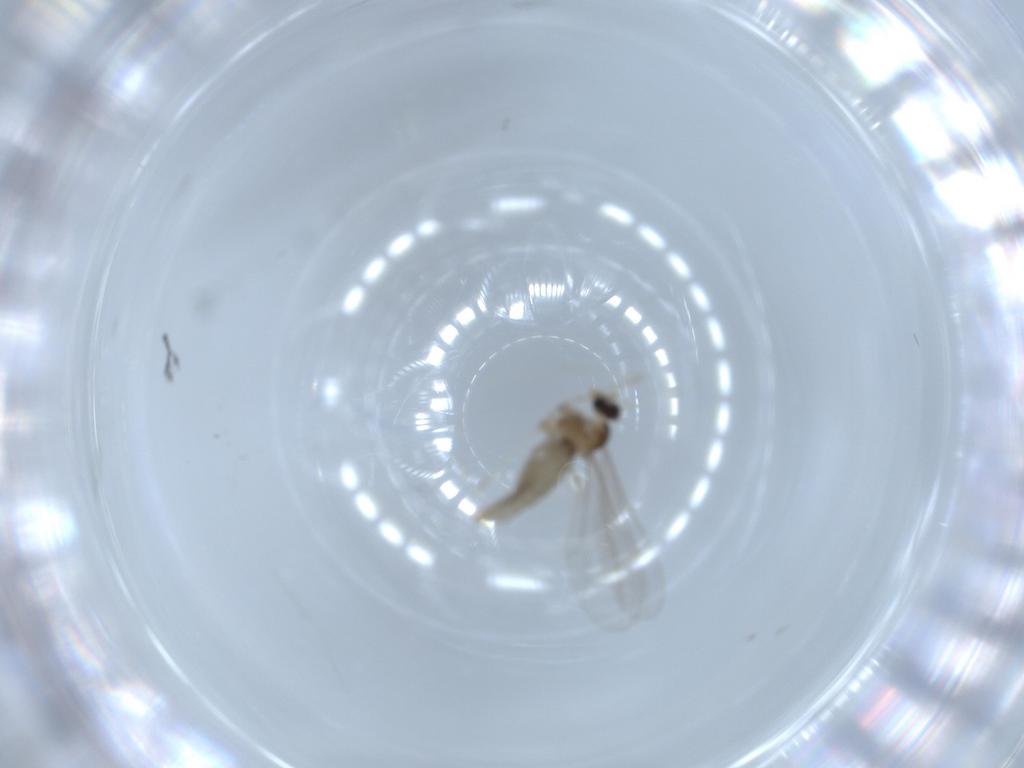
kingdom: Animalia
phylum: Arthropoda
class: Insecta
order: Diptera
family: Cecidomyiidae
